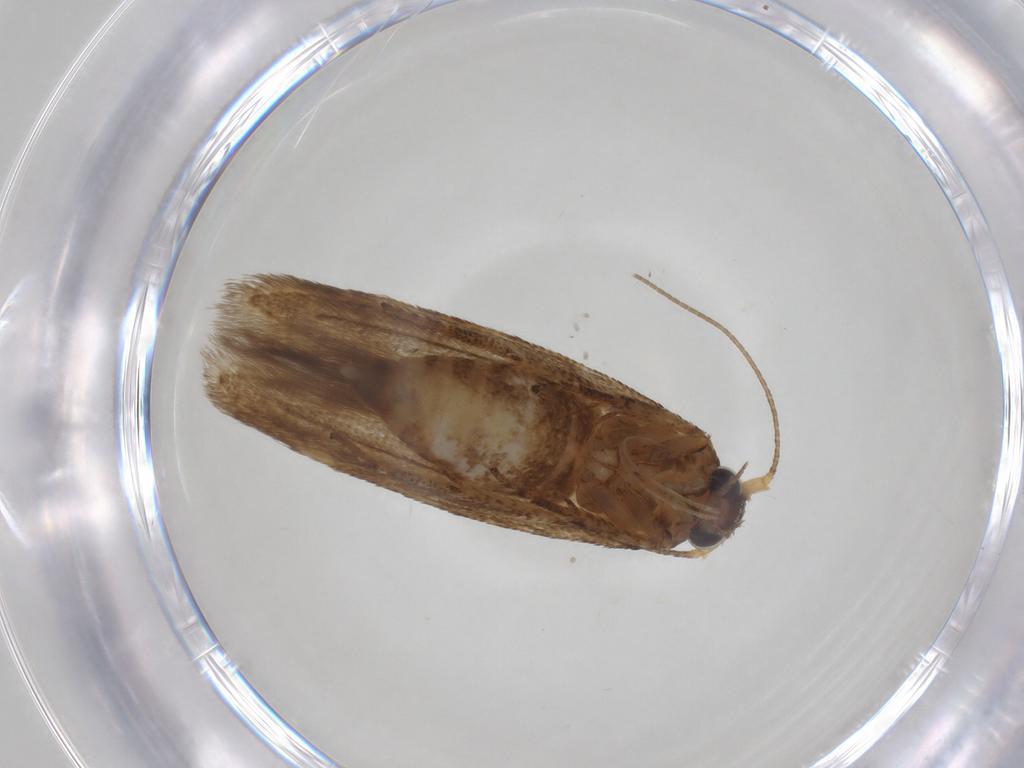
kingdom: Animalia
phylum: Arthropoda
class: Insecta
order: Lepidoptera
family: Blastobasidae
